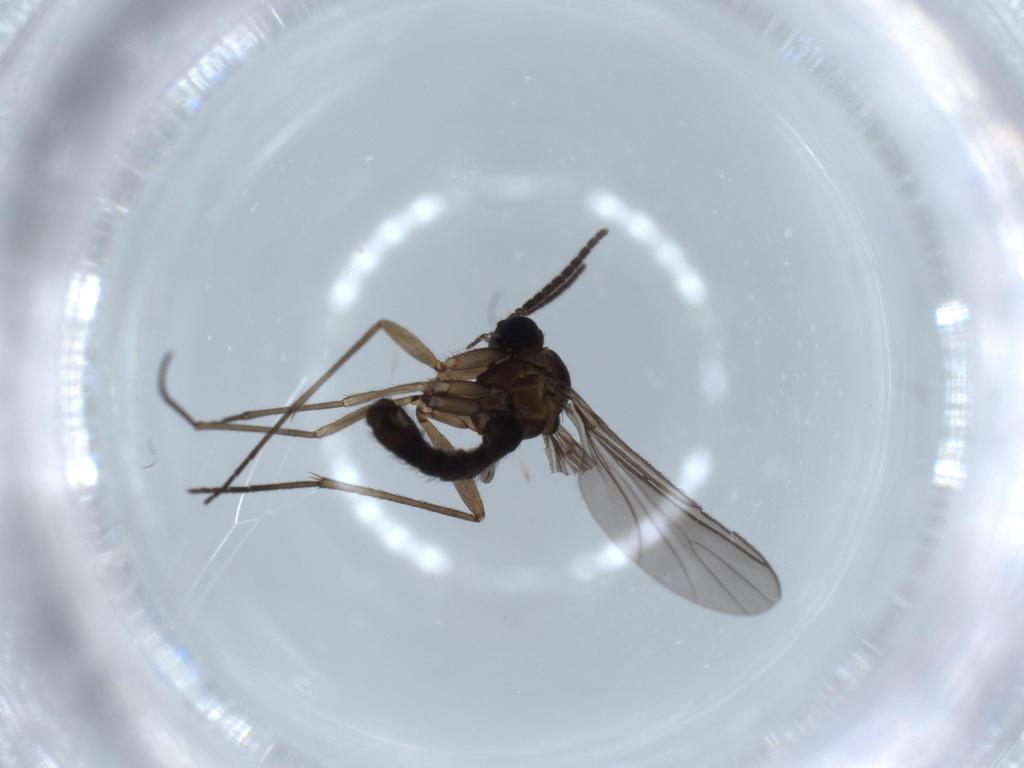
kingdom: Animalia
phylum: Arthropoda
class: Insecta
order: Diptera
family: Sciaridae
